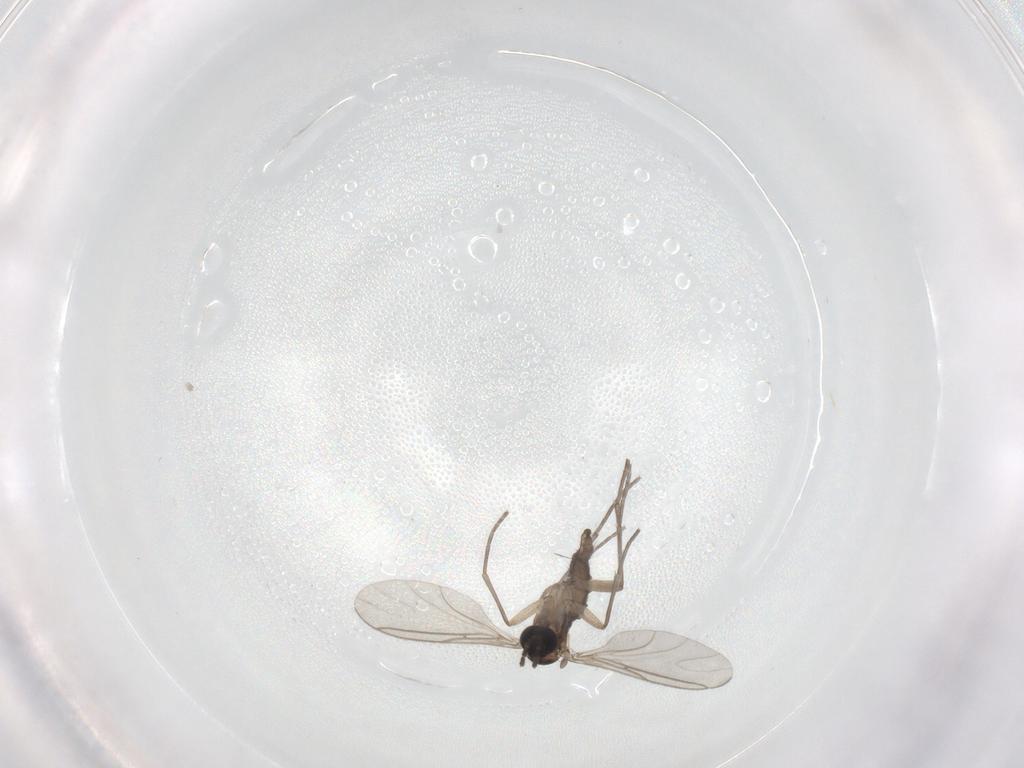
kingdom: Animalia
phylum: Arthropoda
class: Insecta
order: Diptera
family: Cecidomyiidae
